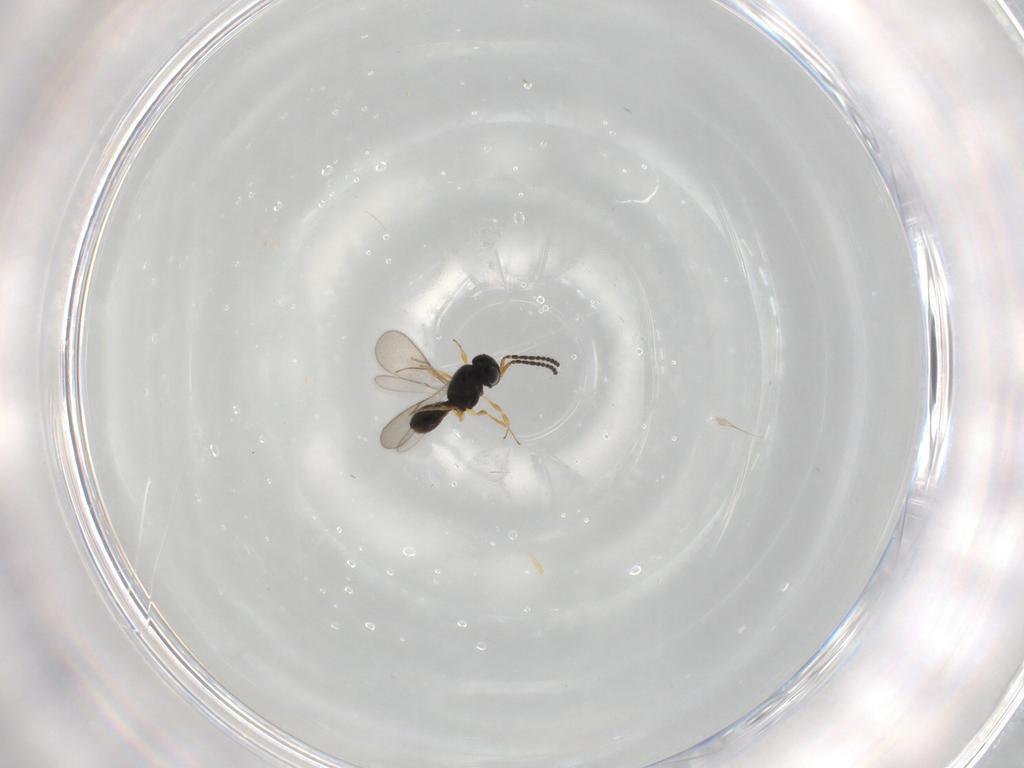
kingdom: Animalia
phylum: Arthropoda
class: Insecta
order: Hymenoptera
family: Scelionidae
